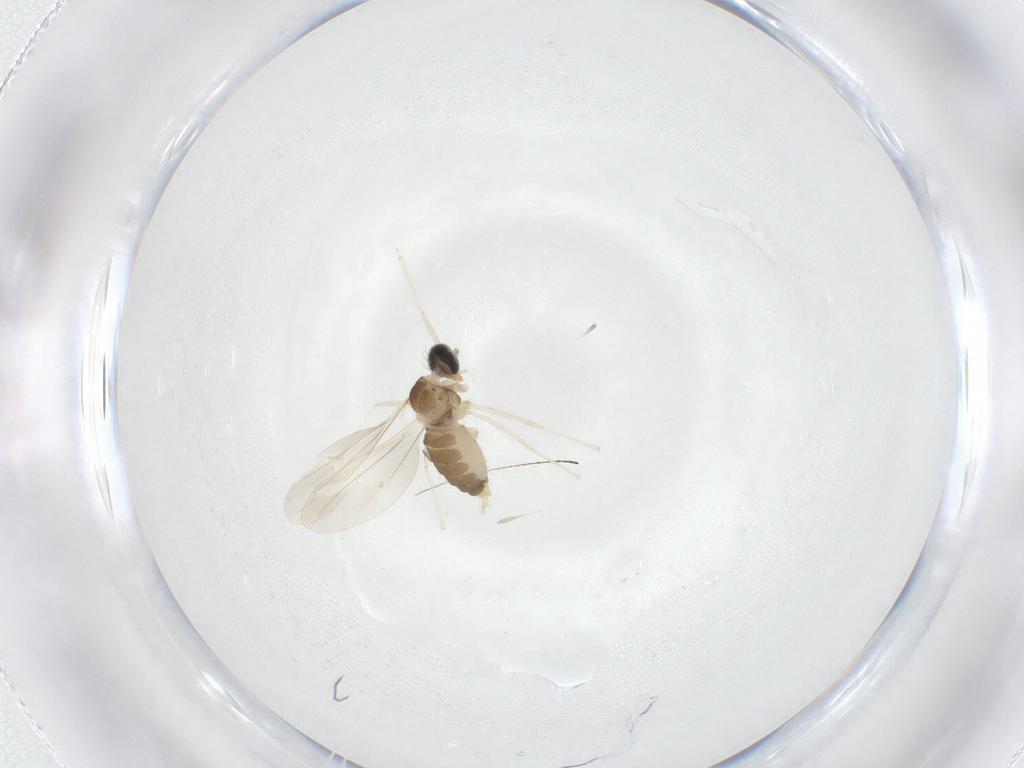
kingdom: Animalia
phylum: Arthropoda
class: Insecta
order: Diptera
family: Cecidomyiidae
